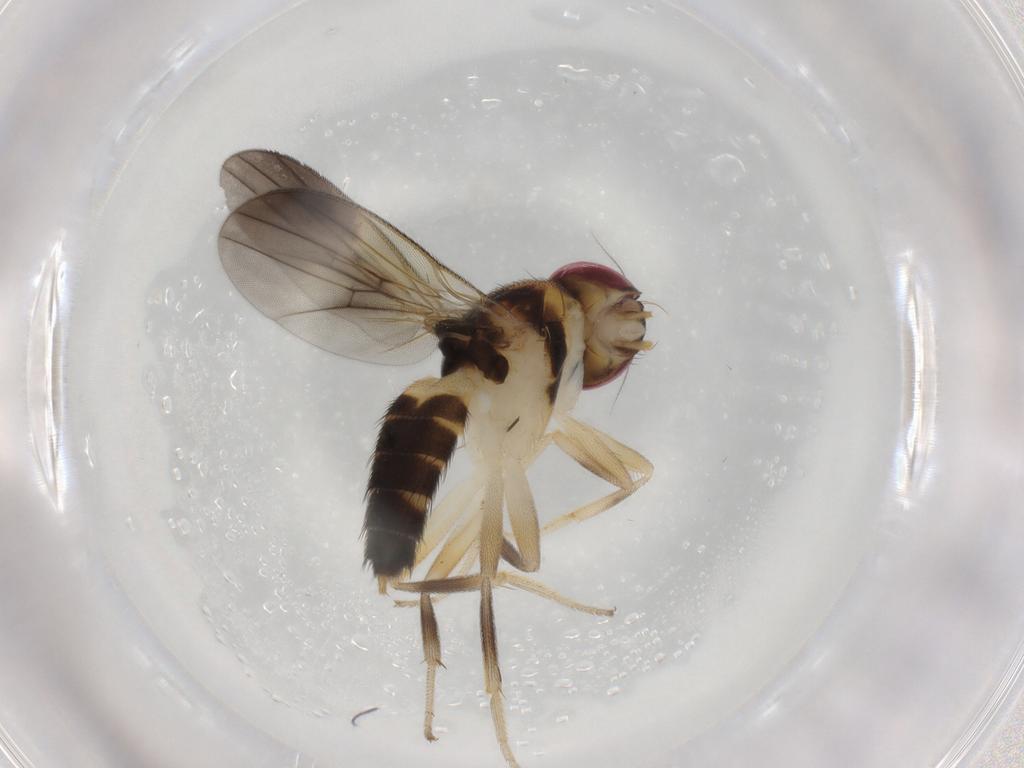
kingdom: Animalia
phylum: Arthropoda
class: Insecta
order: Diptera
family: Clusiidae
